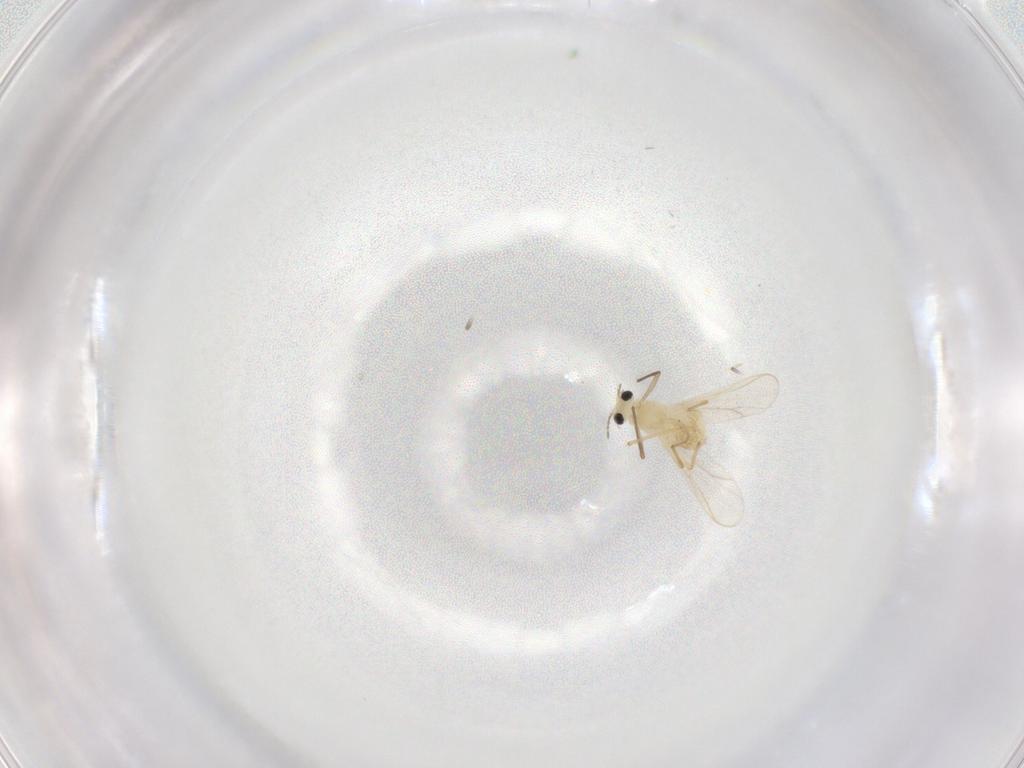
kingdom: Animalia
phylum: Arthropoda
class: Insecta
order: Diptera
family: Chironomidae
